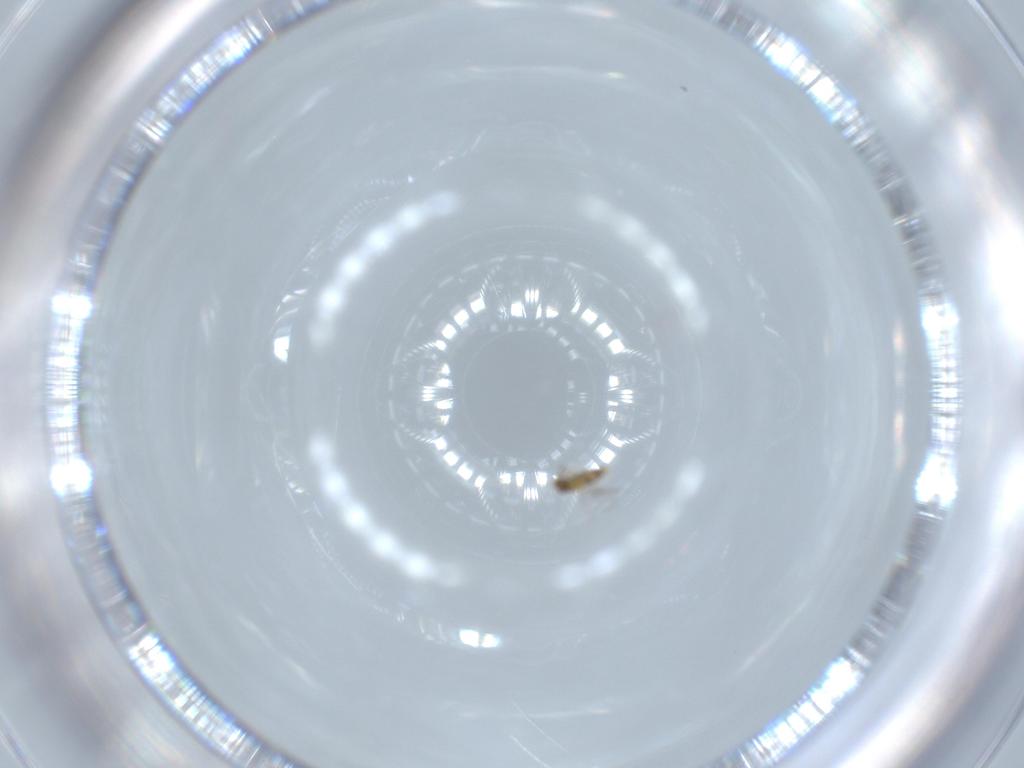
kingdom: Animalia
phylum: Arthropoda
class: Insecta
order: Hymenoptera
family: Aphelinidae
